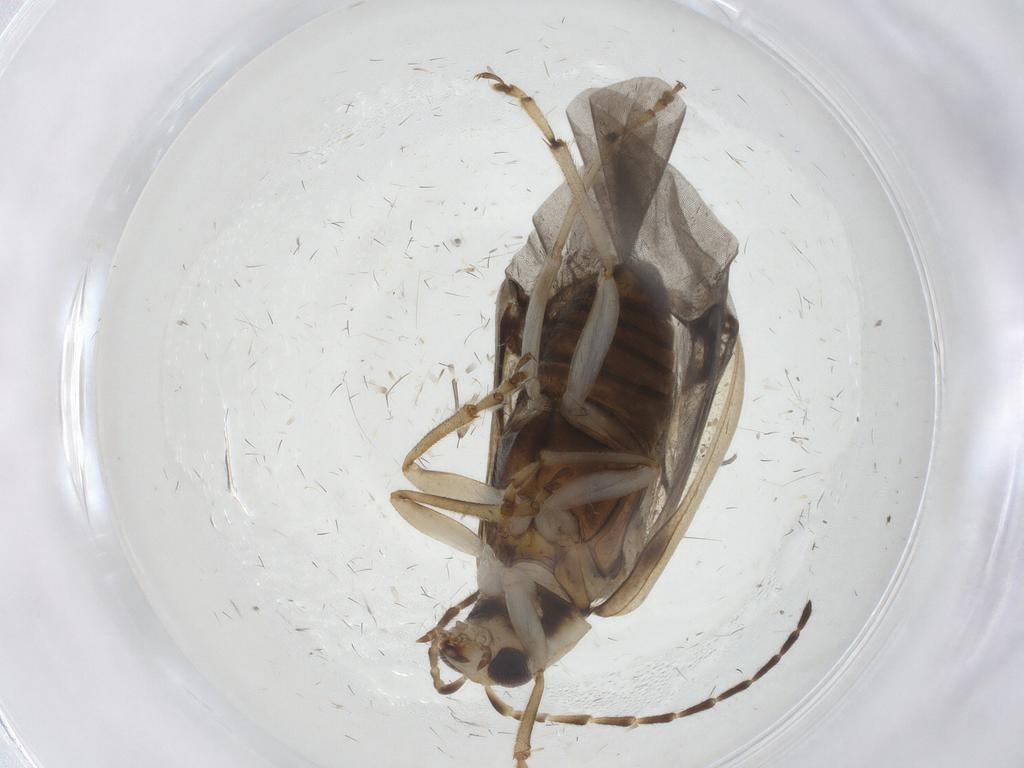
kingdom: Animalia
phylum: Arthropoda
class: Insecta
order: Coleoptera
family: Chrysomelidae
